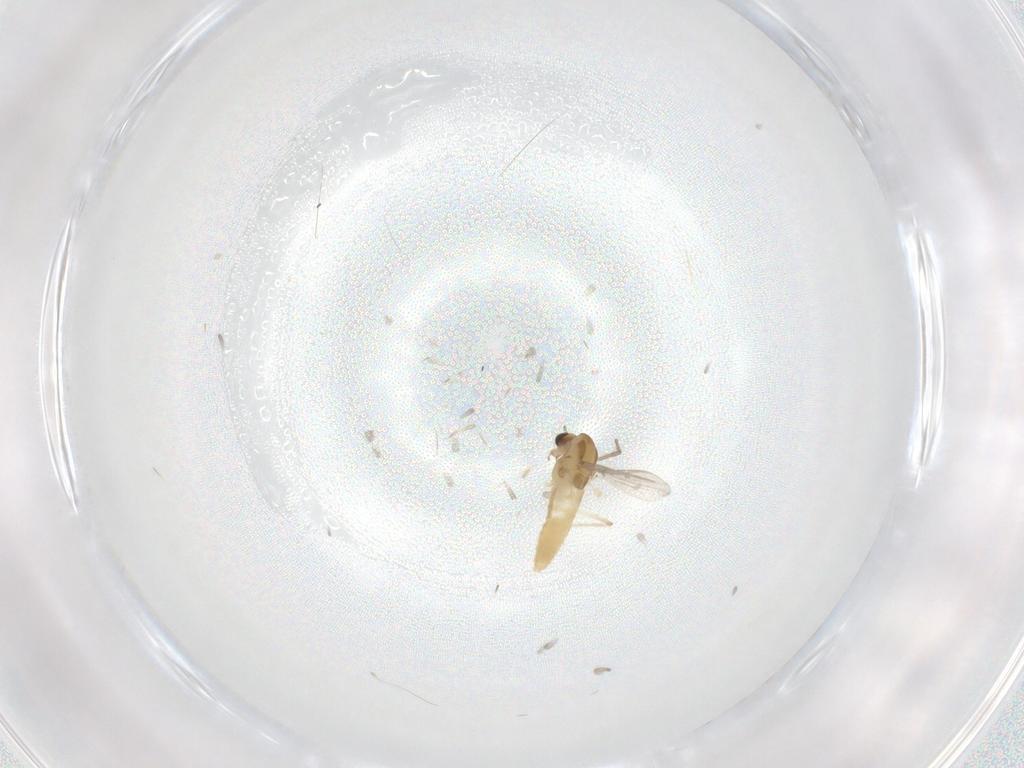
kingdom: Animalia
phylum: Arthropoda
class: Insecta
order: Diptera
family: Chironomidae
